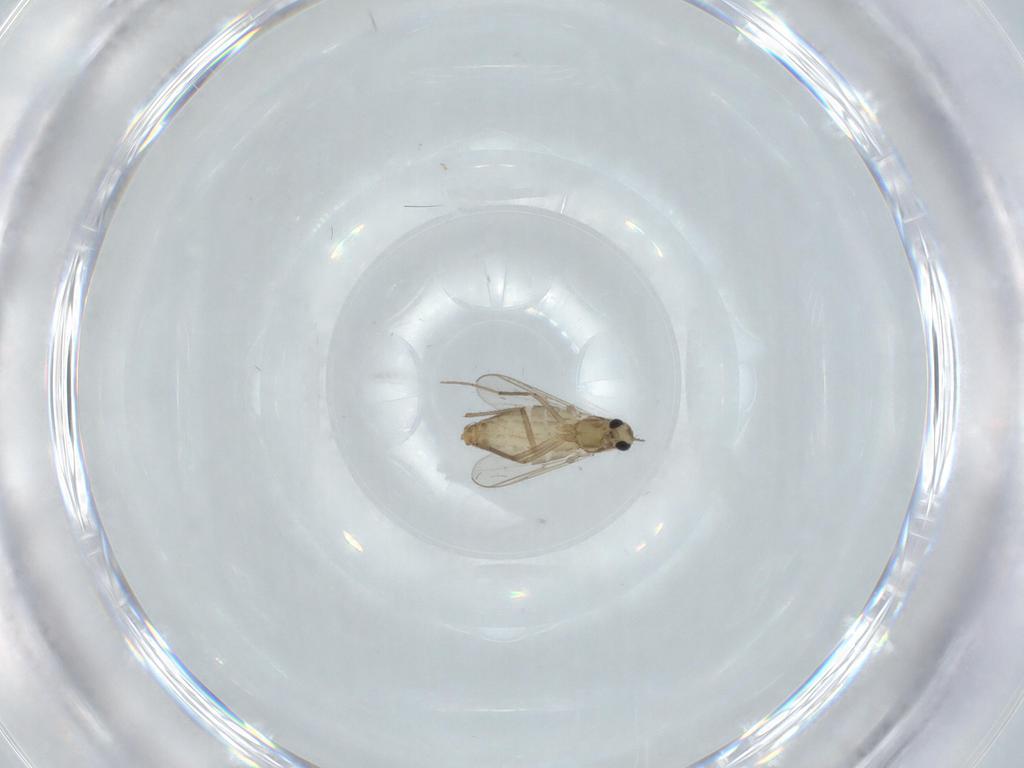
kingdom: Animalia
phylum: Arthropoda
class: Insecta
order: Diptera
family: Chironomidae
